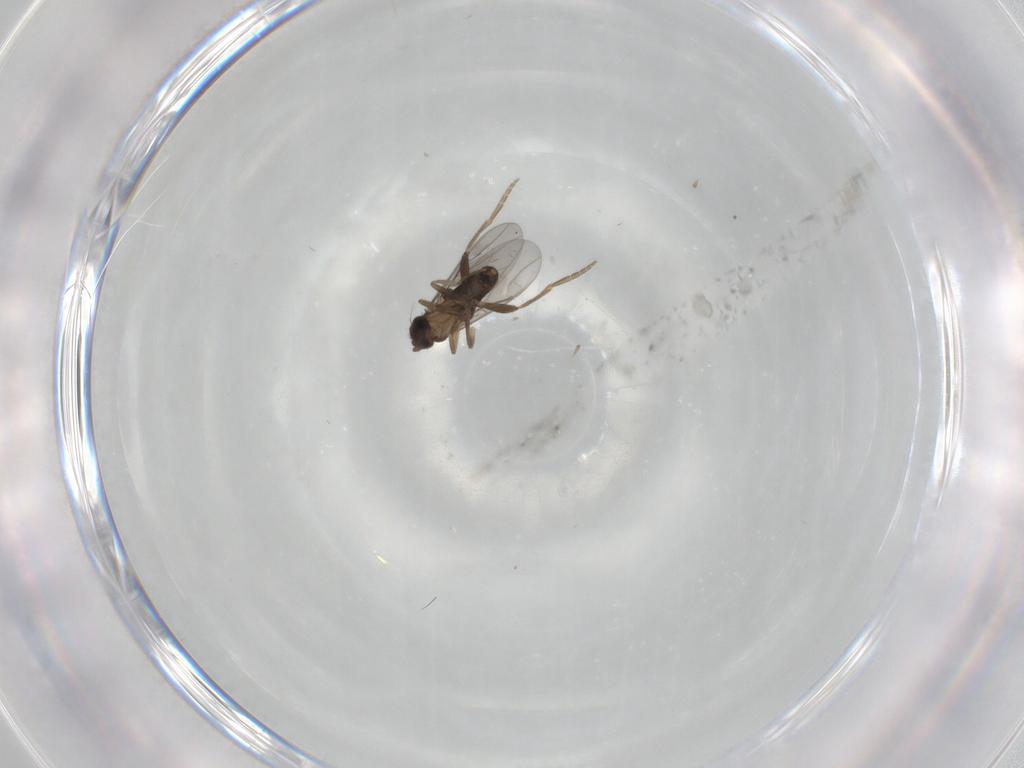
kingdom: Animalia
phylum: Arthropoda
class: Insecta
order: Diptera
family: Phoridae
